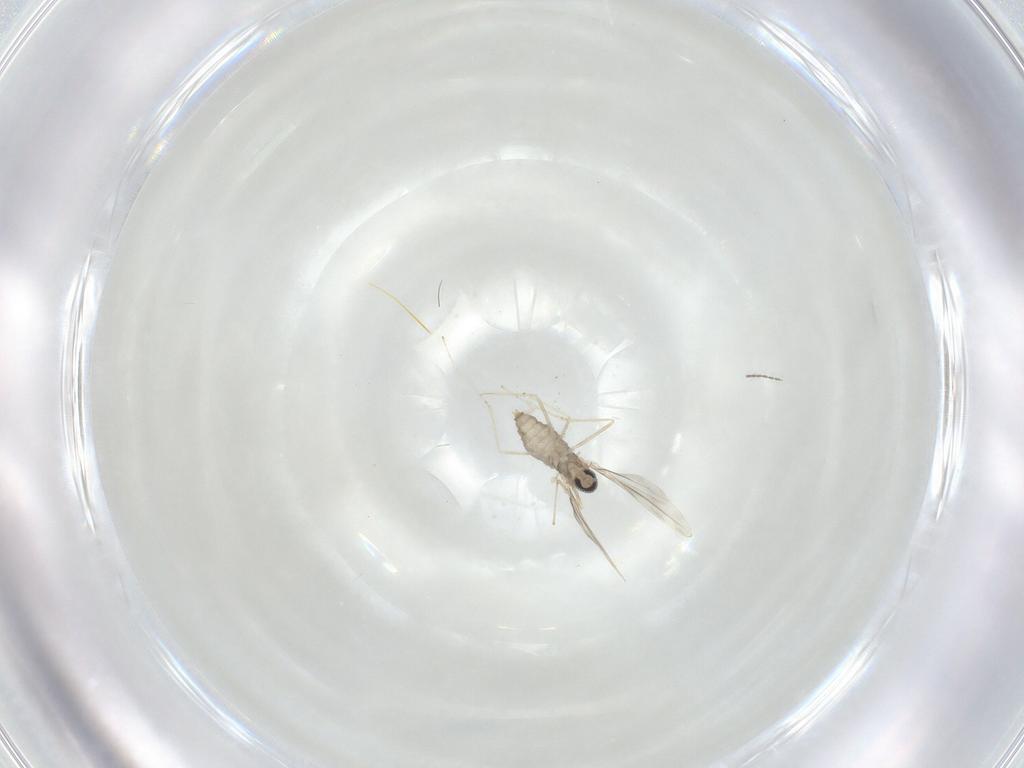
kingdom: Animalia
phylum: Arthropoda
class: Insecta
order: Diptera
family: Cecidomyiidae
